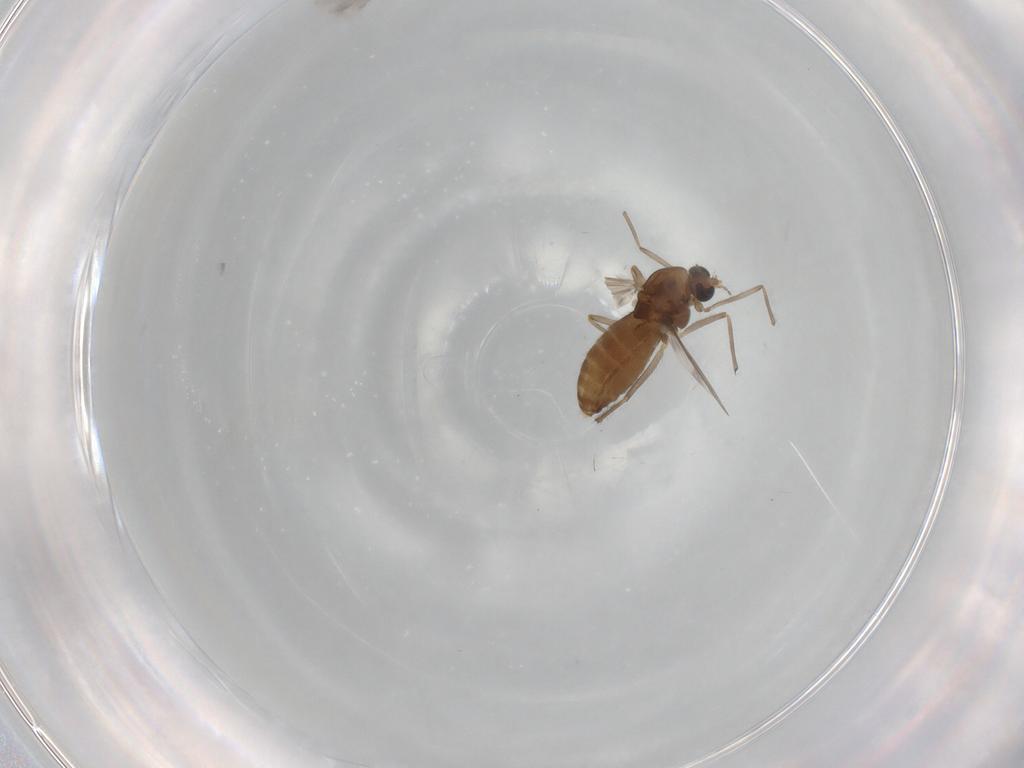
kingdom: Animalia
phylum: Arthropoda
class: Insecta
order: Diptera
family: Chironomidae
